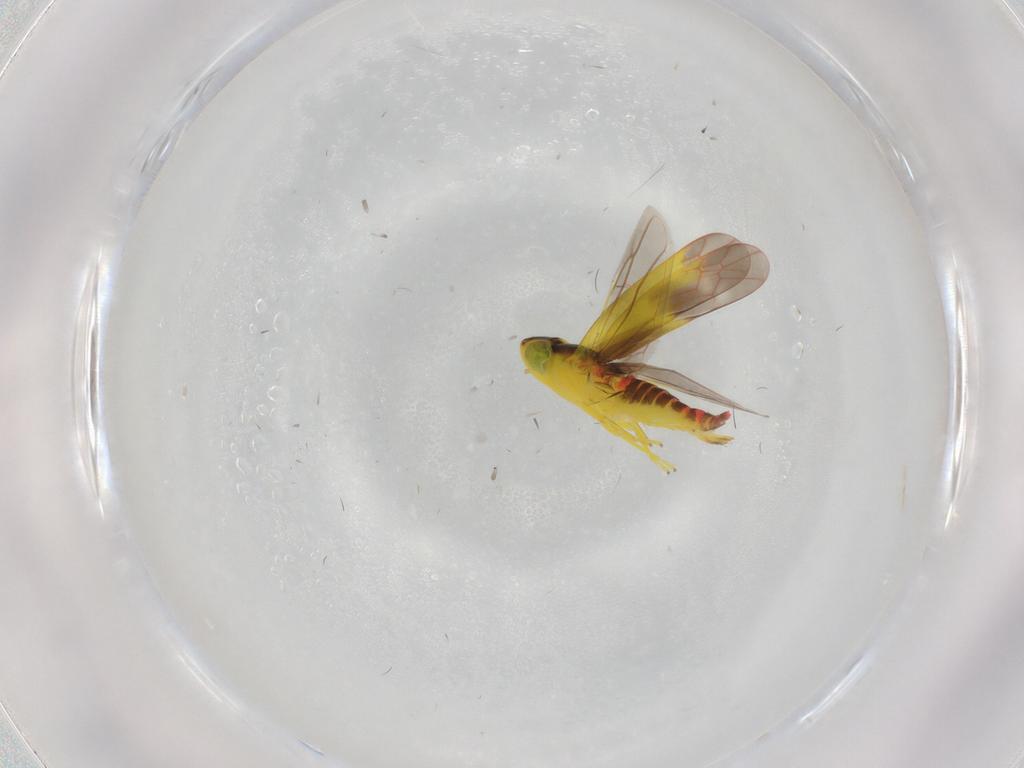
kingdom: Animalia
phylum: Arthropoda
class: Insecta
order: Hemiptera
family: Cicadellidae
